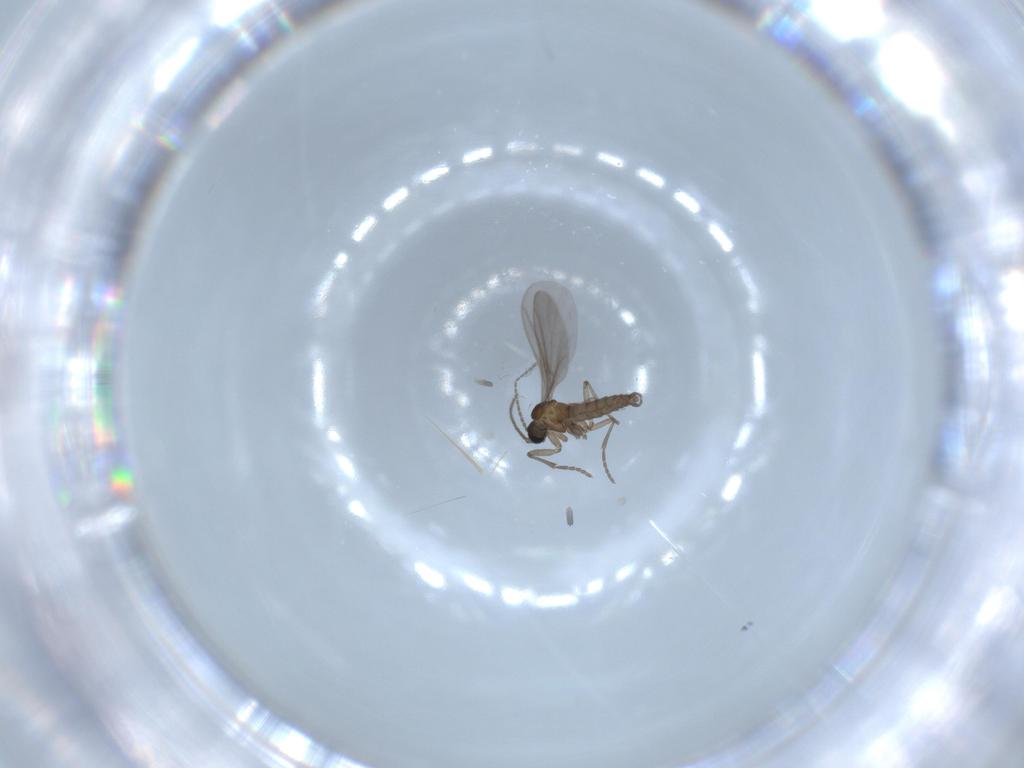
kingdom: Animalia
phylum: Arthropoda
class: Insecta
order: Diptera
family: Sciaridae
